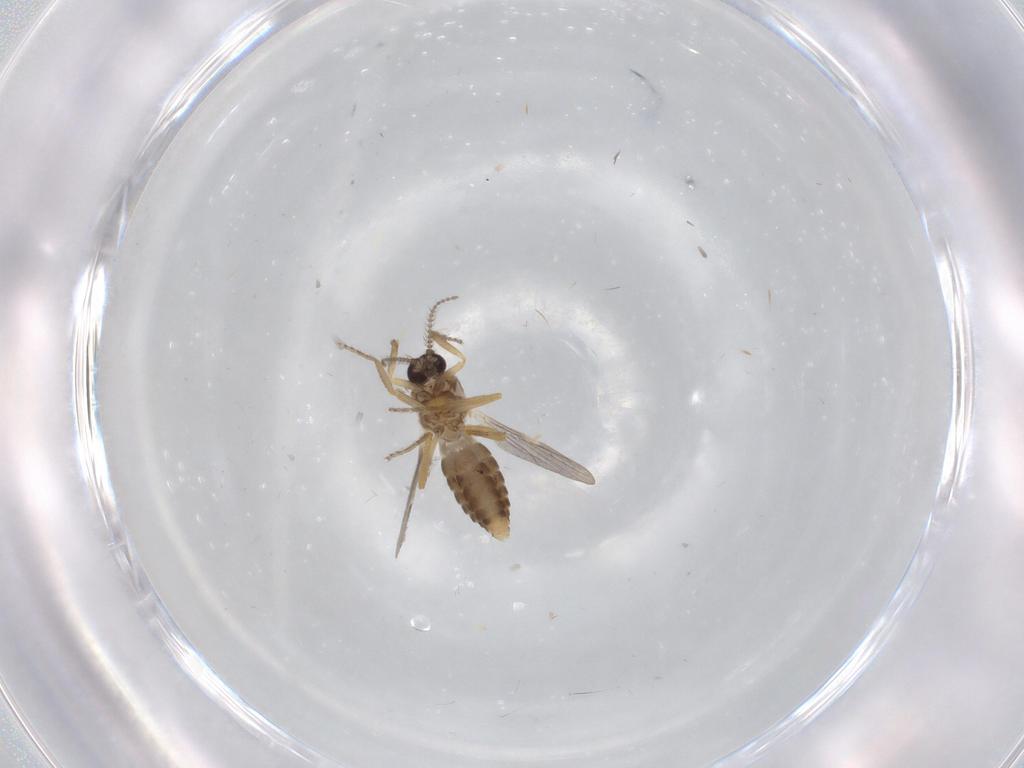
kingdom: Animalia
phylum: Arthropoda
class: Insecta
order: Diptera
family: Ceratopogonidae
